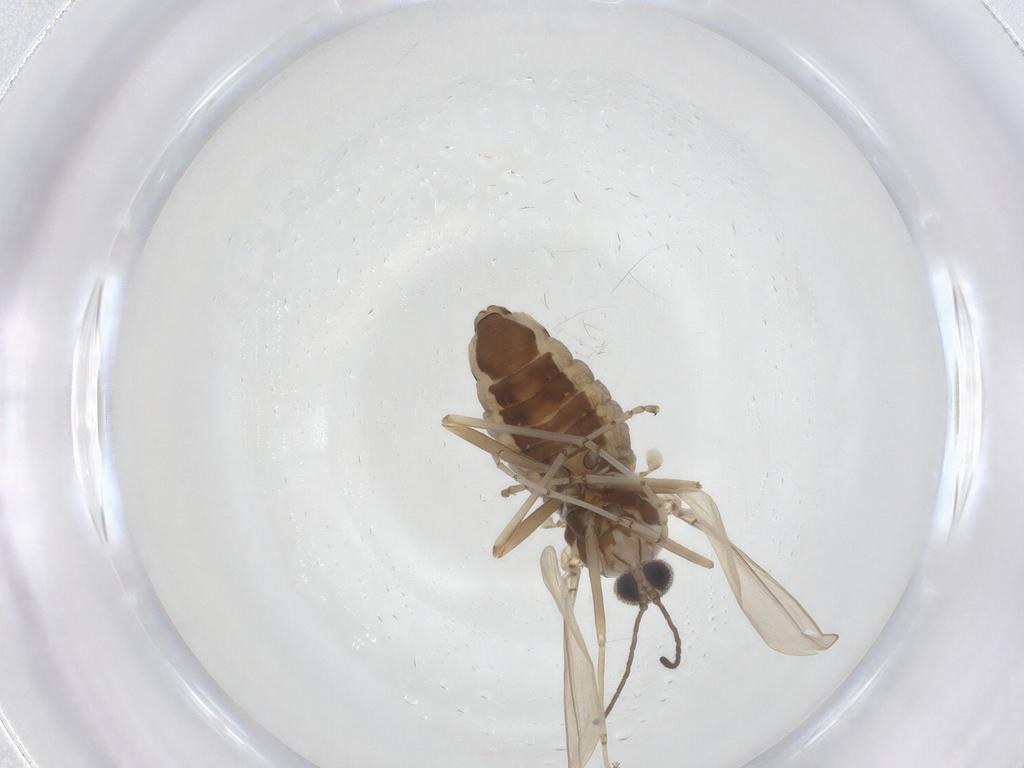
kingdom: Animalia
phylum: Arthropoda
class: Insecta
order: Diptera
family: Cecidomyiidae
